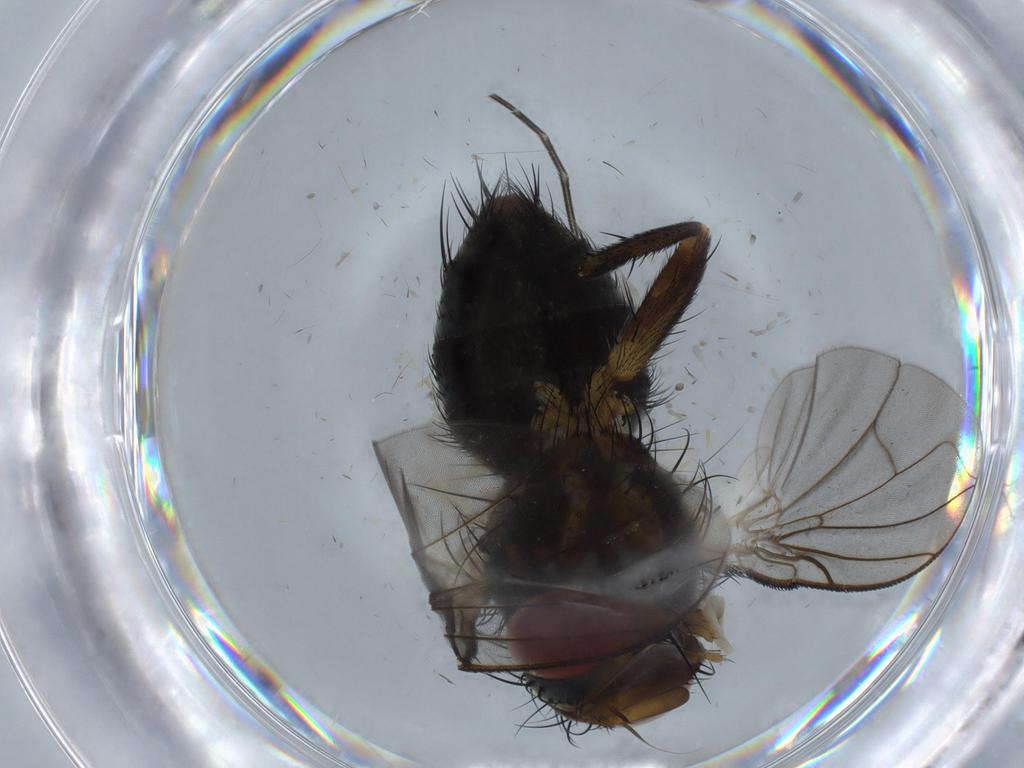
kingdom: Animalia
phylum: Arthropoda
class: Insecta
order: Diptera
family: Tachinidae
